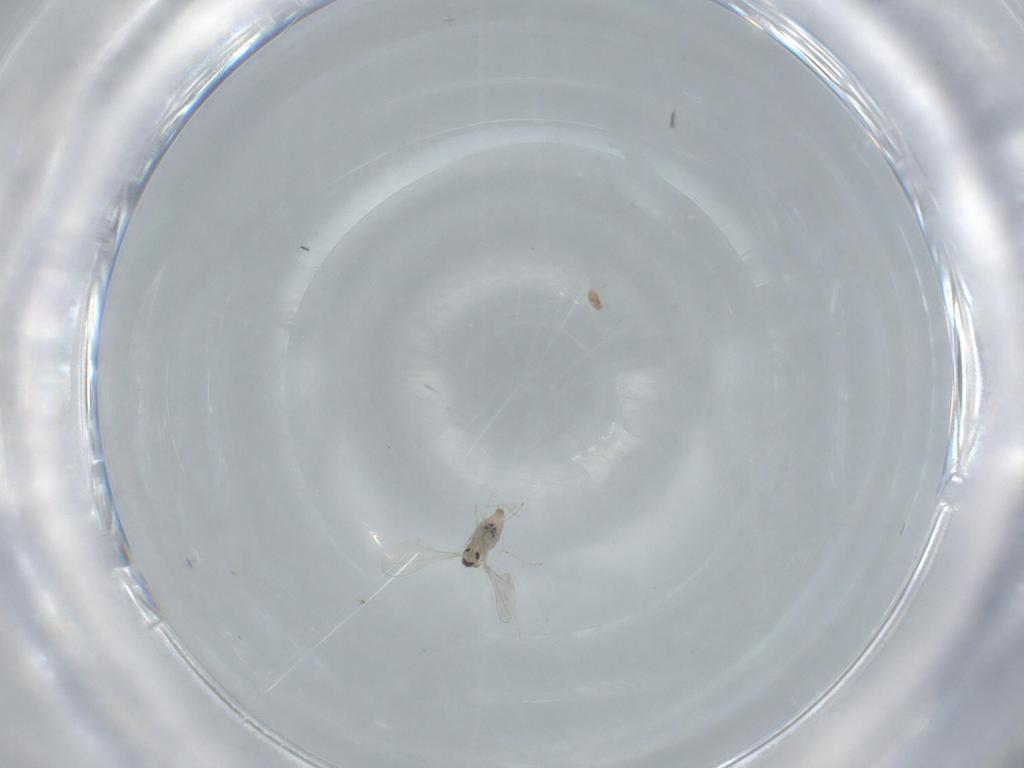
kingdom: Animalia
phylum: Arthropoda
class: Insecta
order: Diptera
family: Cecidomyiidae
